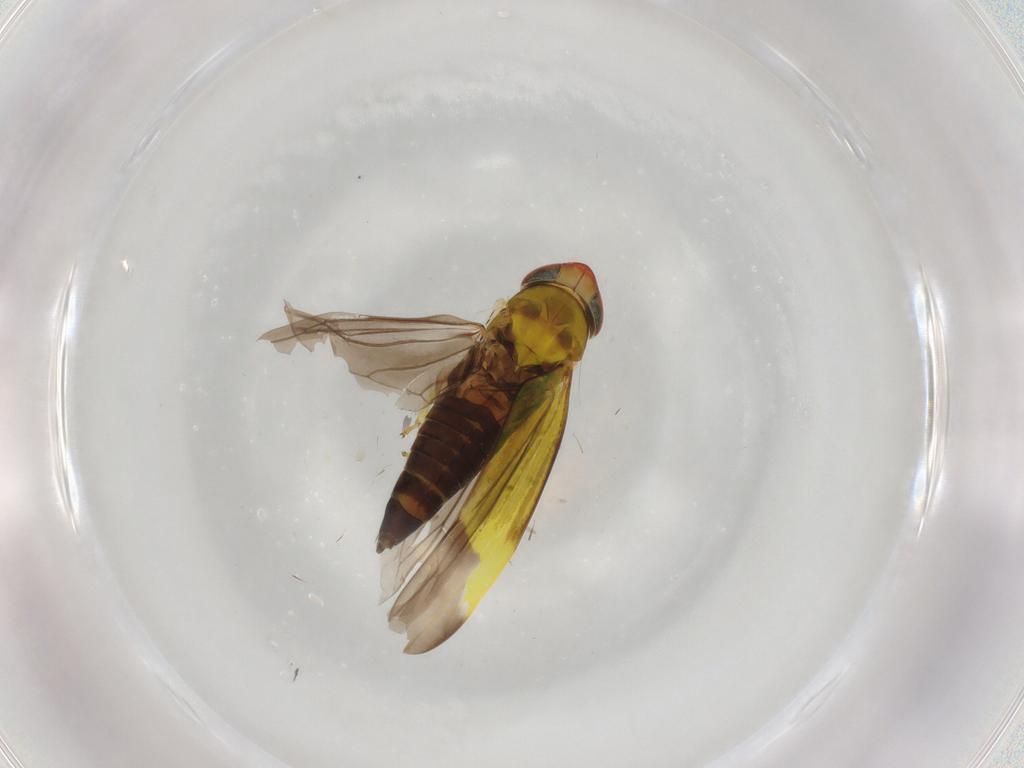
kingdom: Animalia
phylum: Arthropoda
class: Insecta
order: Hemiptera
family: Cicadellidae
